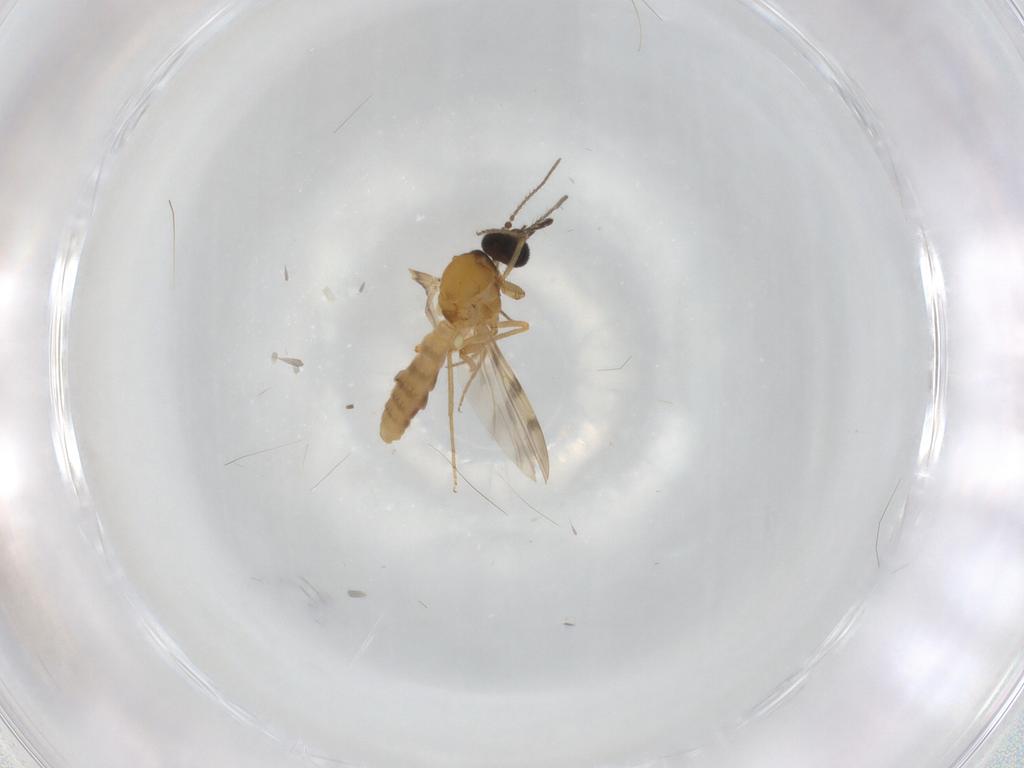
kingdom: Animalia
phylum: Arthropoda
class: Insecta
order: Diptera
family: Ceratopogonidae
